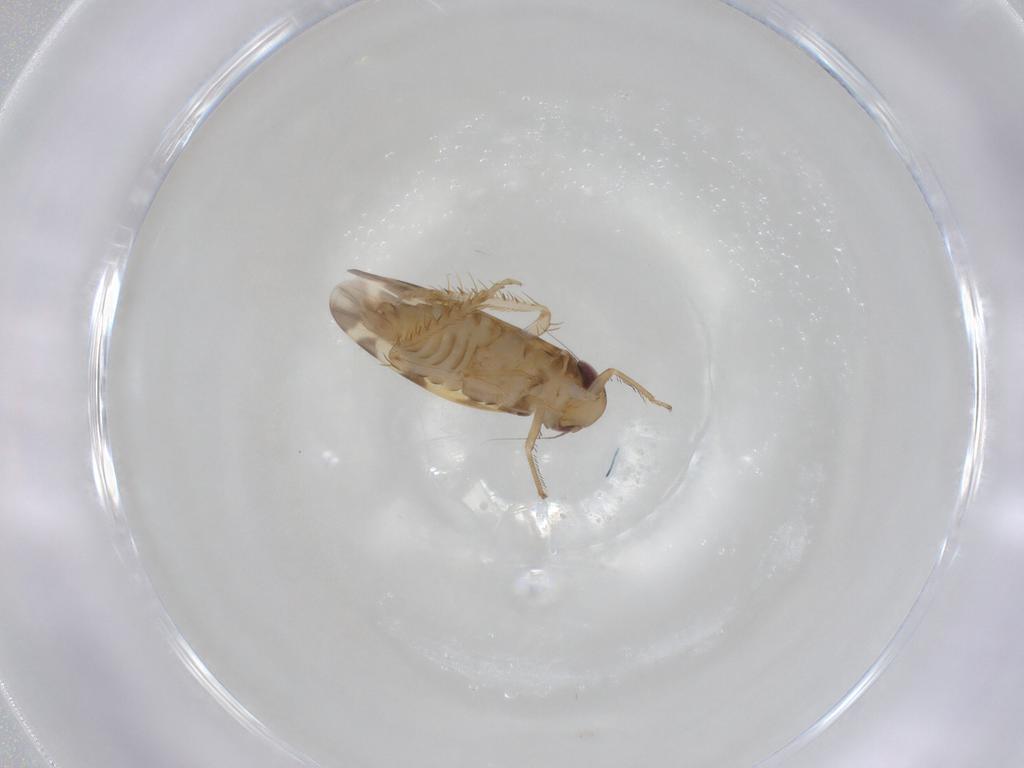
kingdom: Animalia
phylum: Arthropoda
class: Insecta
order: Hemiptera
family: Cicadellidae
